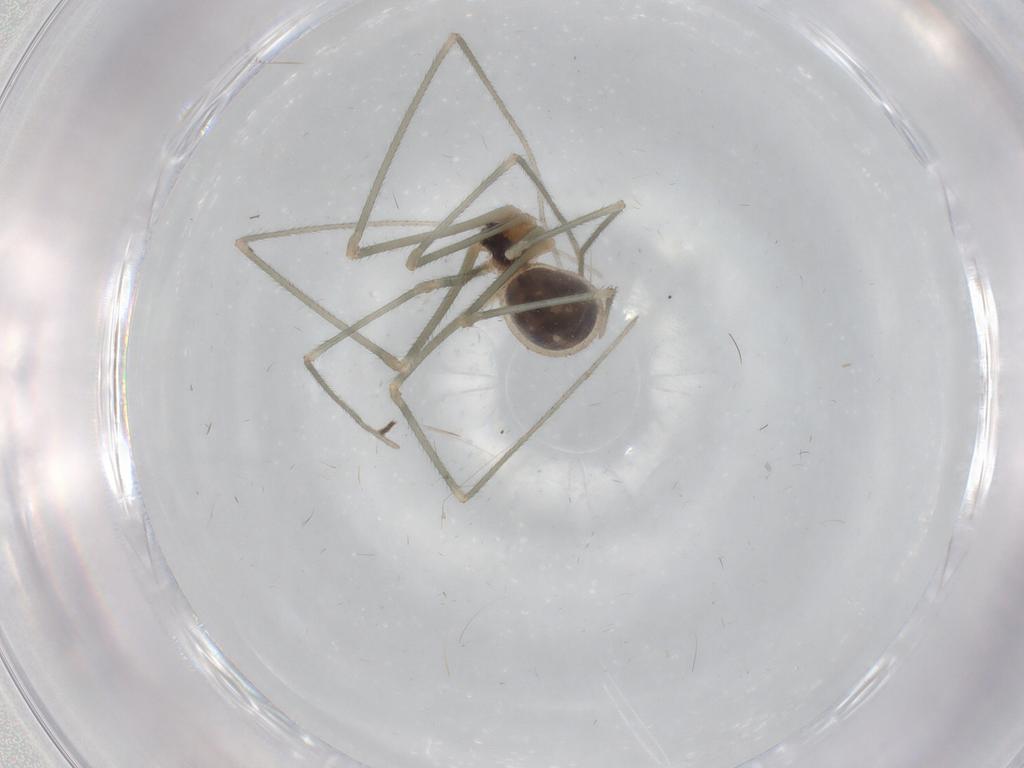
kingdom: Animalia
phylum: Arthropoda
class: Arachnida
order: Araneae
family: Pholcidae
